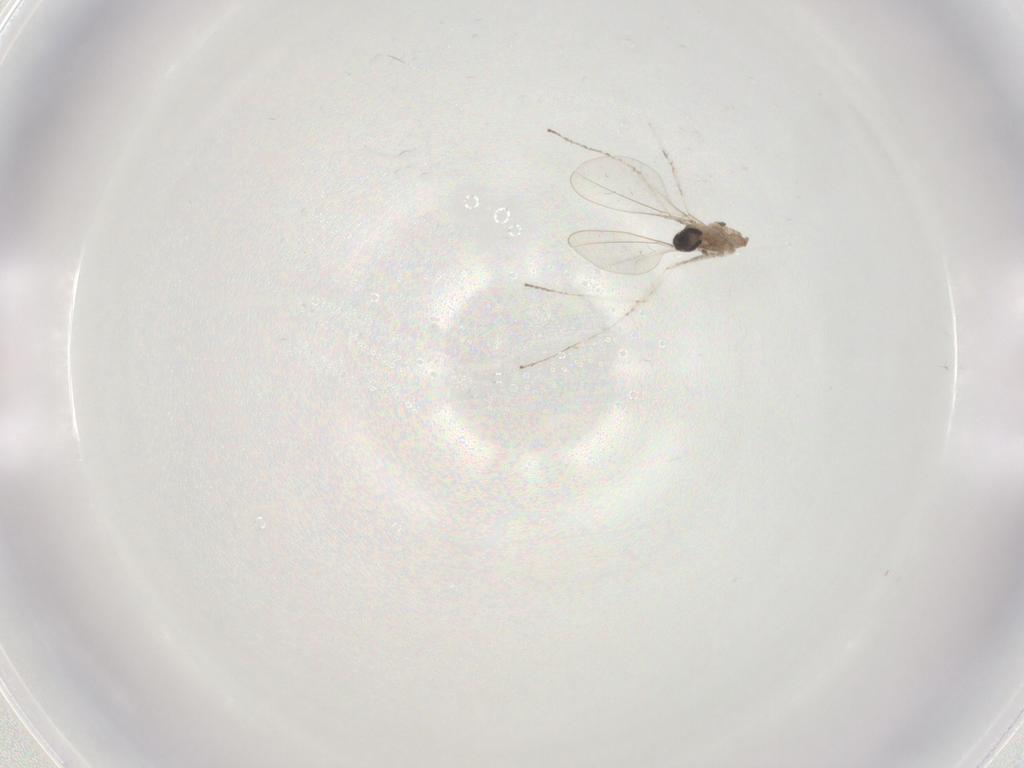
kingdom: Animalia
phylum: Arthropoda
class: Insecta
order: Diptera
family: Cecidomyiidae
